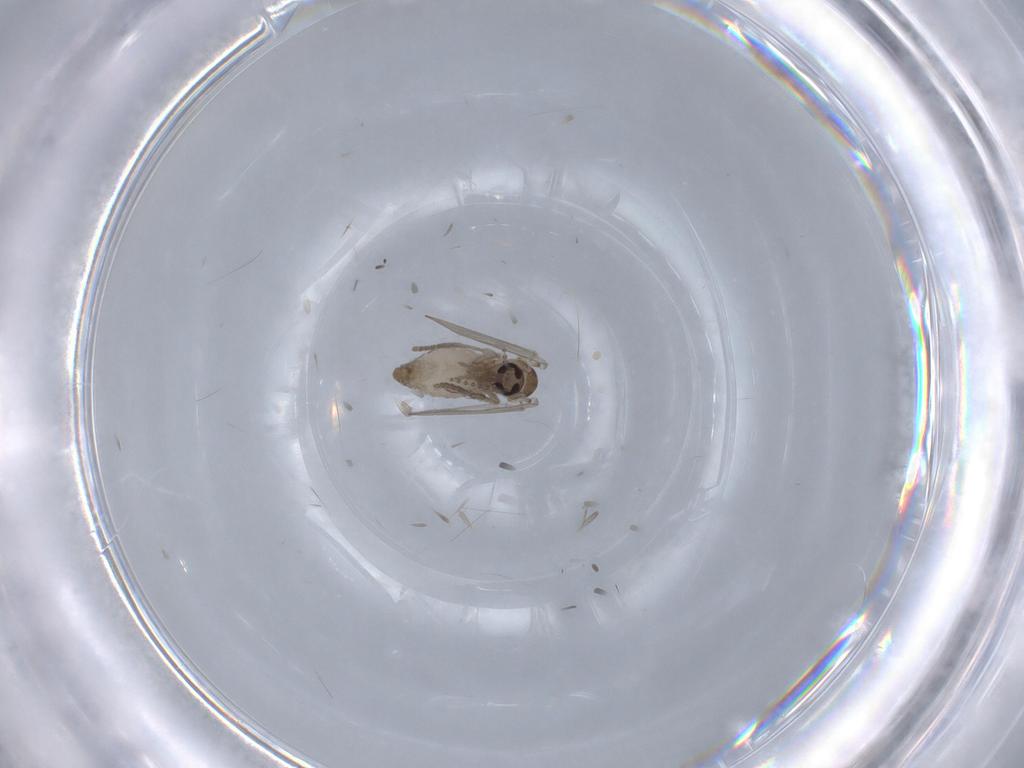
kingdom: Animalia
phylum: Arthropoda
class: Insecta
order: Diptera
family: Psychodidae
